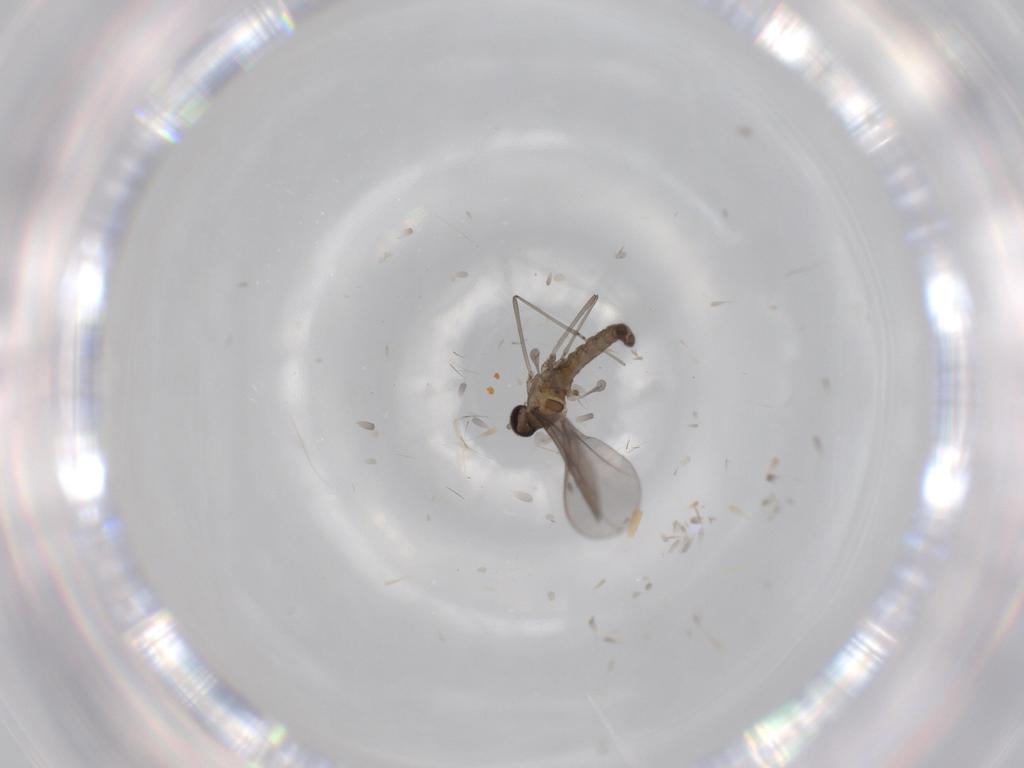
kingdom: Animalia
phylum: Arthropoda
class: Insecta
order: Diptera
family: Cecidomyiidae
